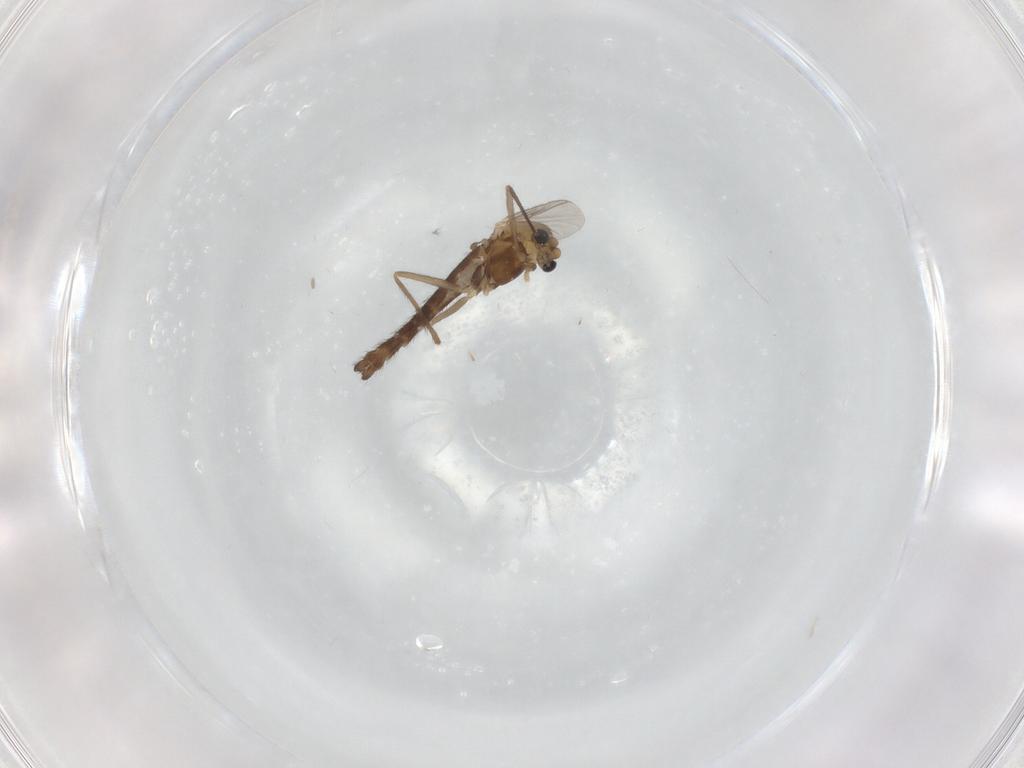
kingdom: Animalia
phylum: Arthropoda
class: Insecta
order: Diptera
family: Chironomidae
